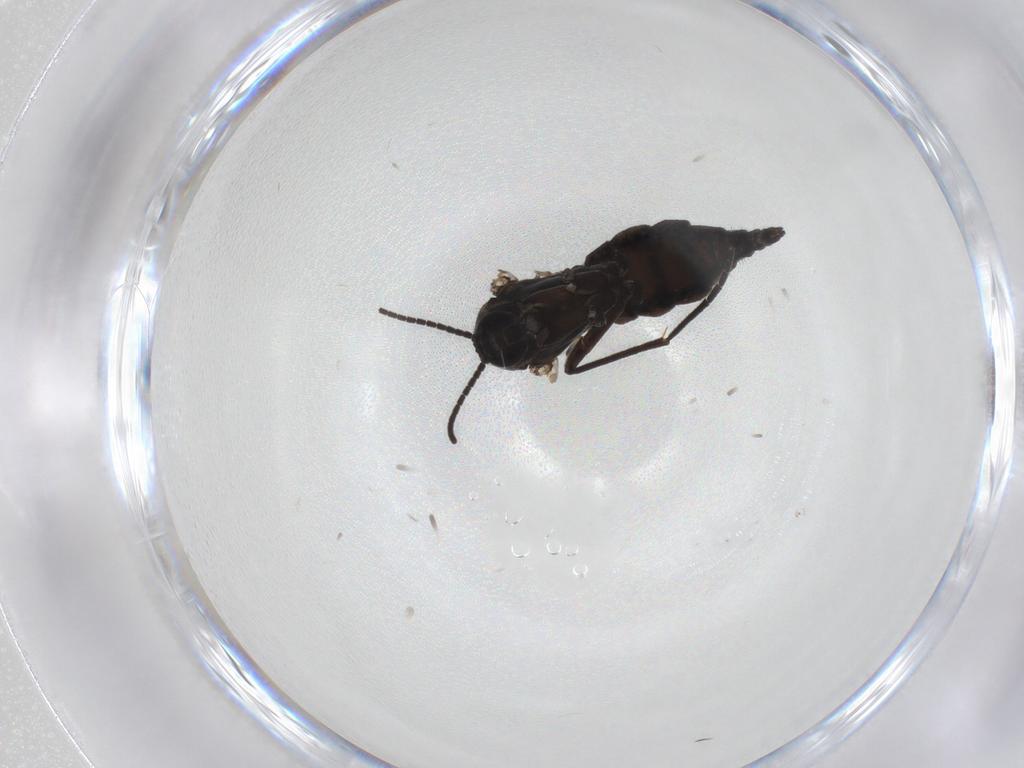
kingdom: Animalia
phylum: Arthropoda
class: Insecta
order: Diptera
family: Sciaridae
